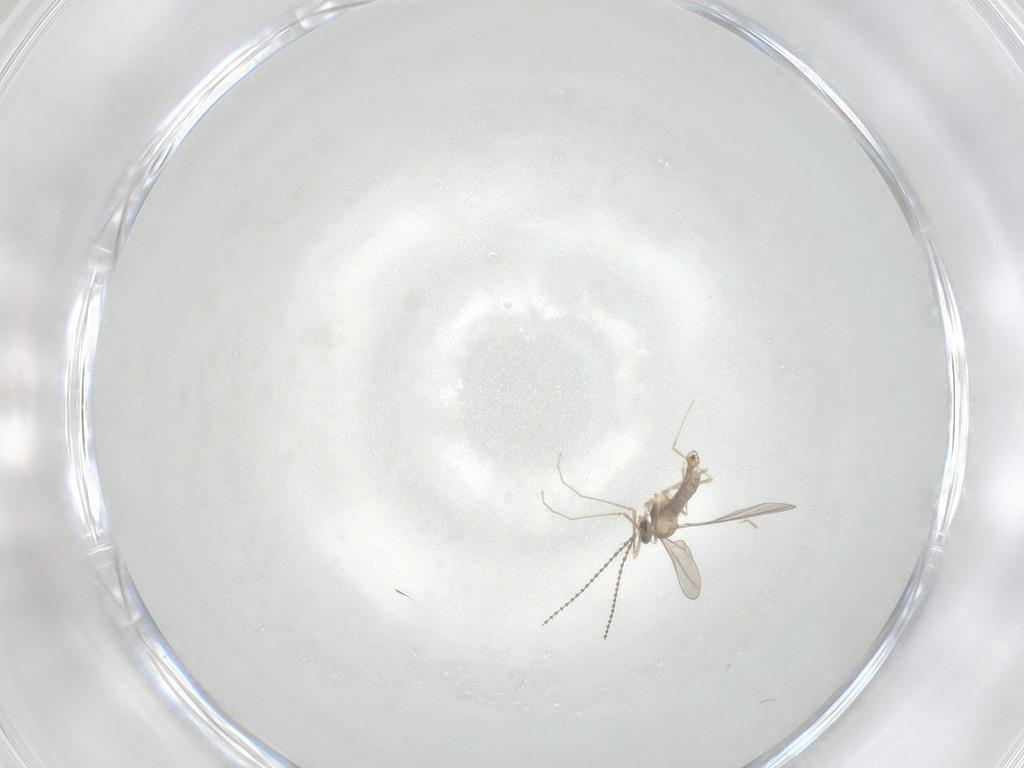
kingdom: Animalia
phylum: Arthropoda
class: Insecta
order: Diptera
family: Cecidomyiidae
